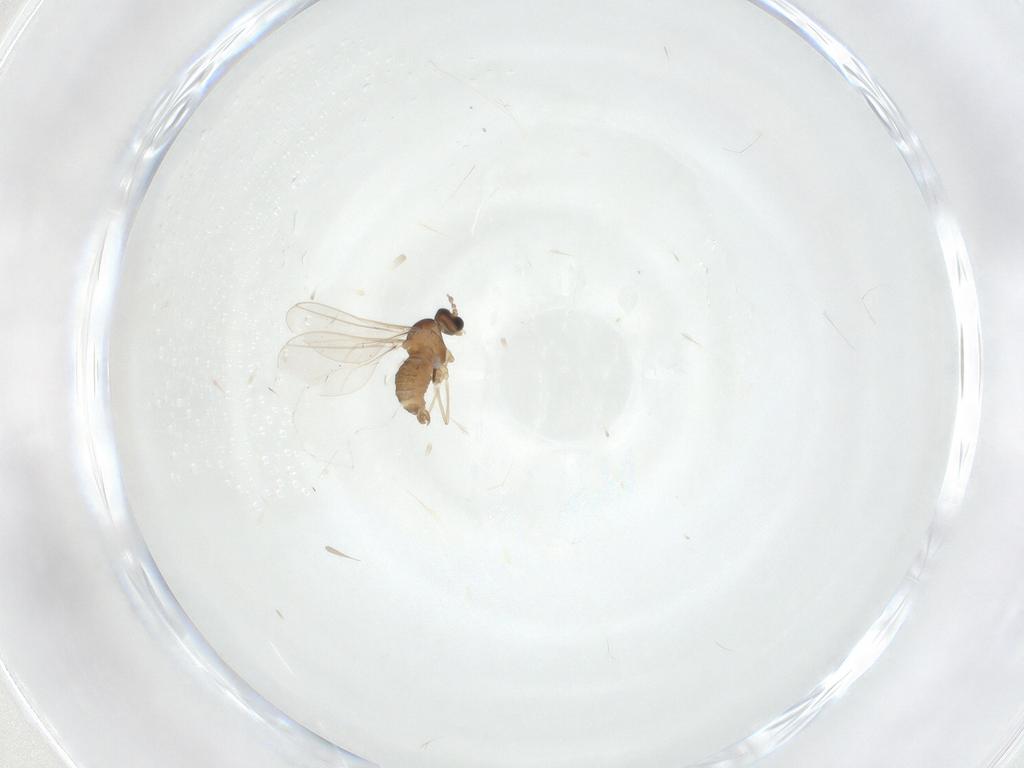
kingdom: Animalia
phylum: Arthropoda
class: Insecta
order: Diptera
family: Cecidomyiidae
